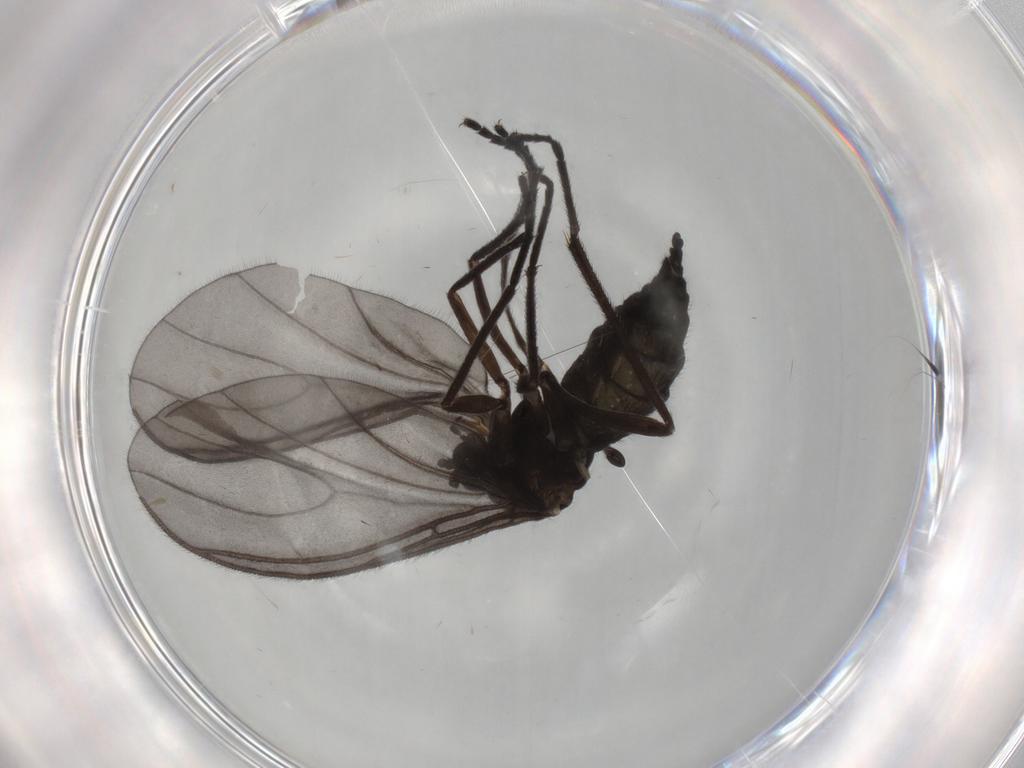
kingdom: Animalia
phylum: Arthropoda
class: Insecta
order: Diptera
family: Sciaridae
